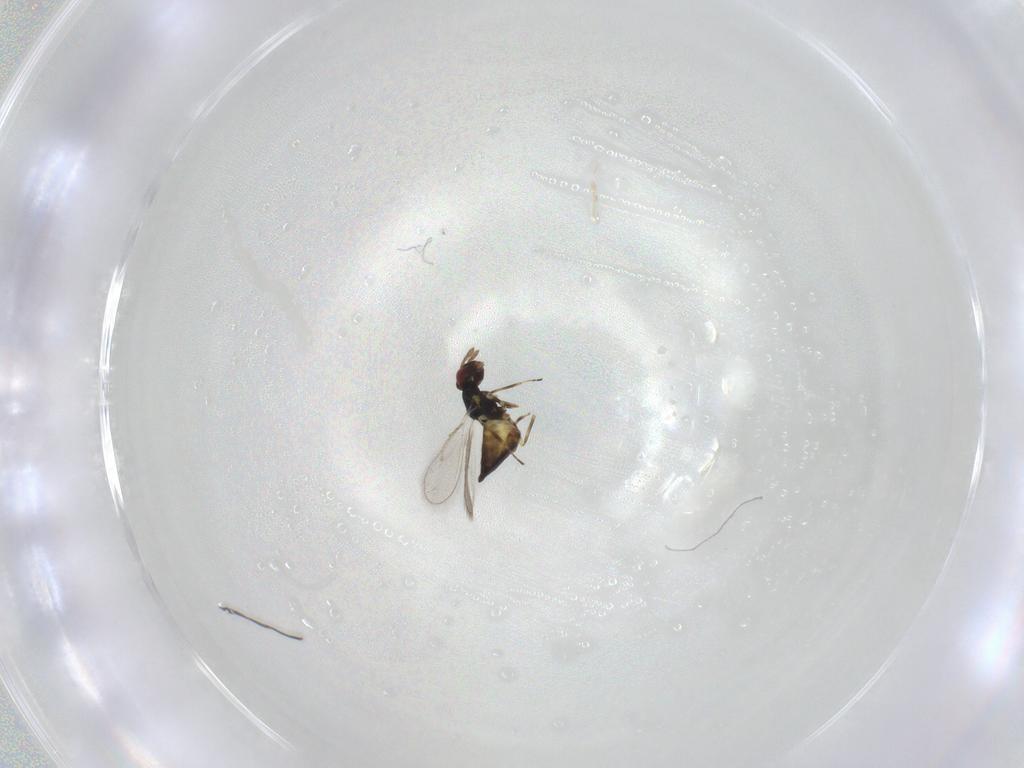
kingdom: Animalia
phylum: Arthropoda
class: Insecta
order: Hymenoptera
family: Eulophidae
